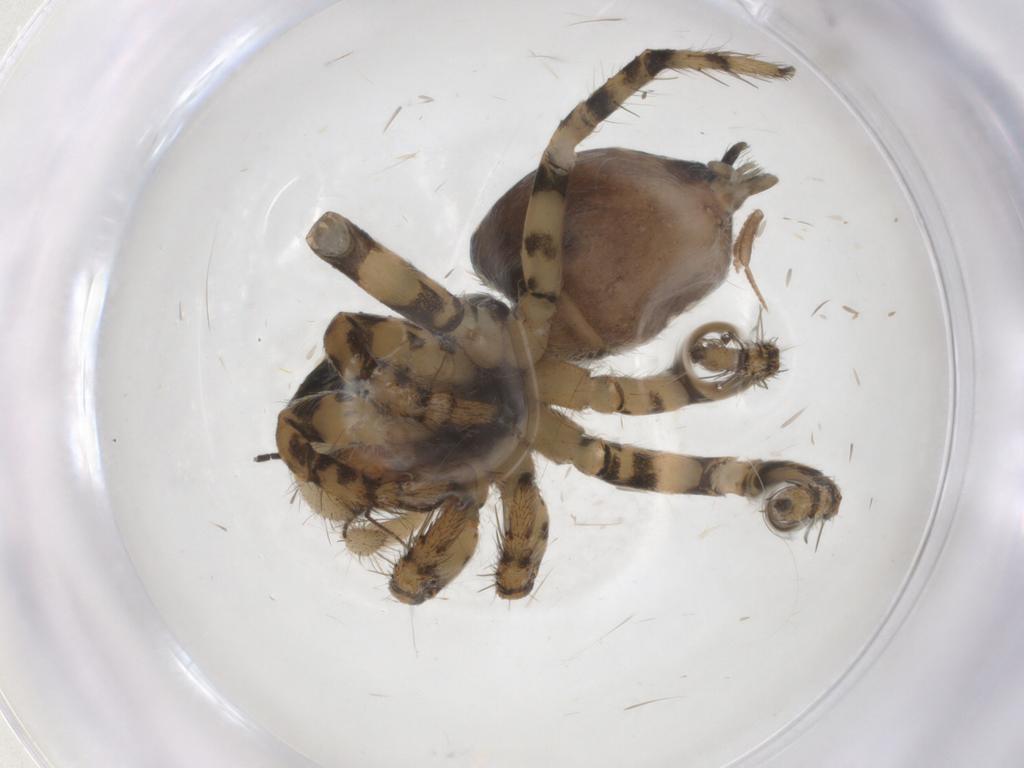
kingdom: Animalia
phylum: Arthropoda
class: Arachnida
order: Araneae
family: Salticidae
